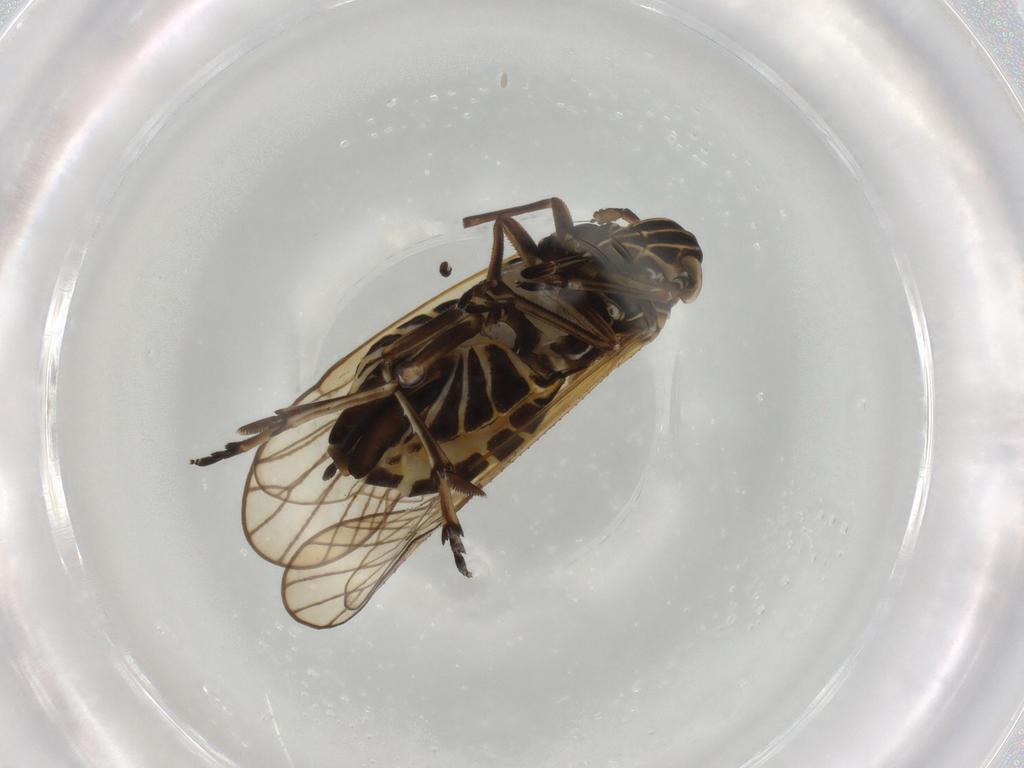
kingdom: Animalia
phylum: Arthropoda
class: Insecta
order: Hemiptera
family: Delphacidae
